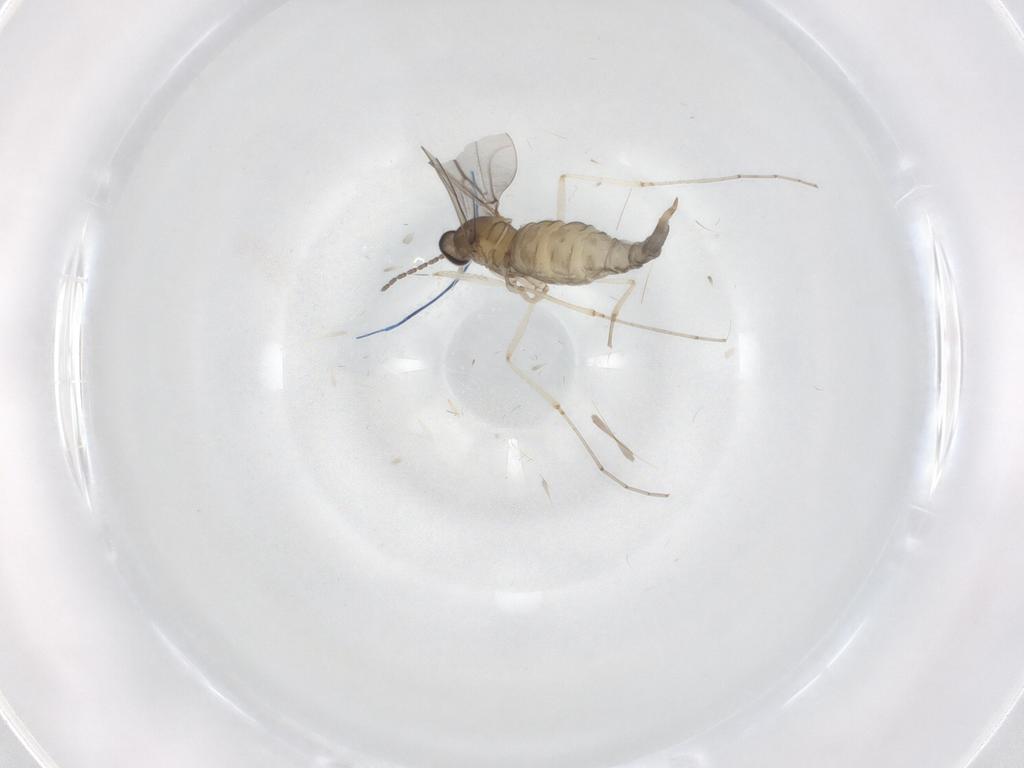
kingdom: Animalia
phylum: Arthropoda
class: Insecta
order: Diptera
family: Cecidomyiidae
